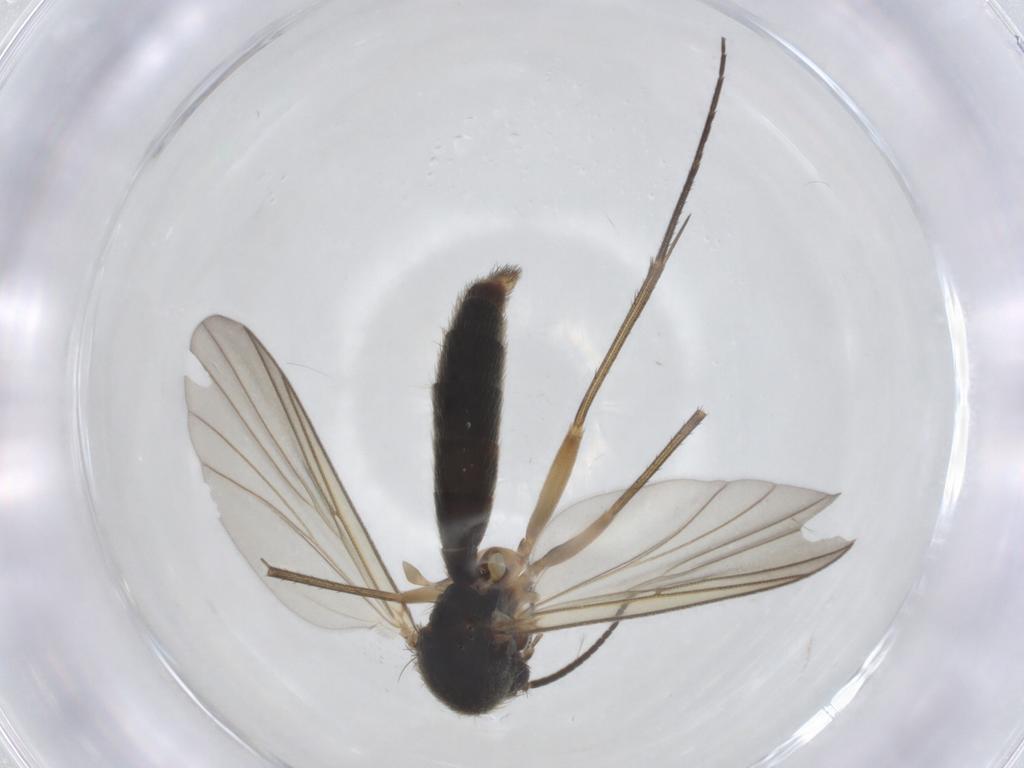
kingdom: Animalia
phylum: Arthropoda
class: Insecta
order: Diptera
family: Mycetophilidae
